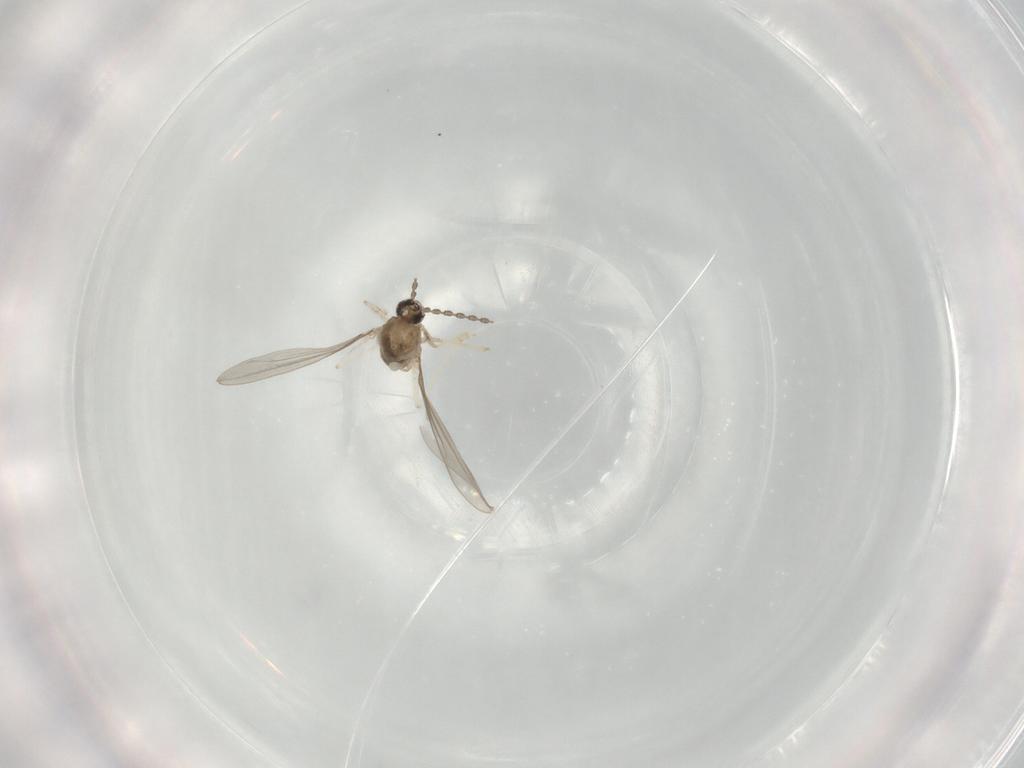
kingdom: Animalia
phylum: Arthropoda
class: Insecta
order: Diptera
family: Cecidomyiidae
